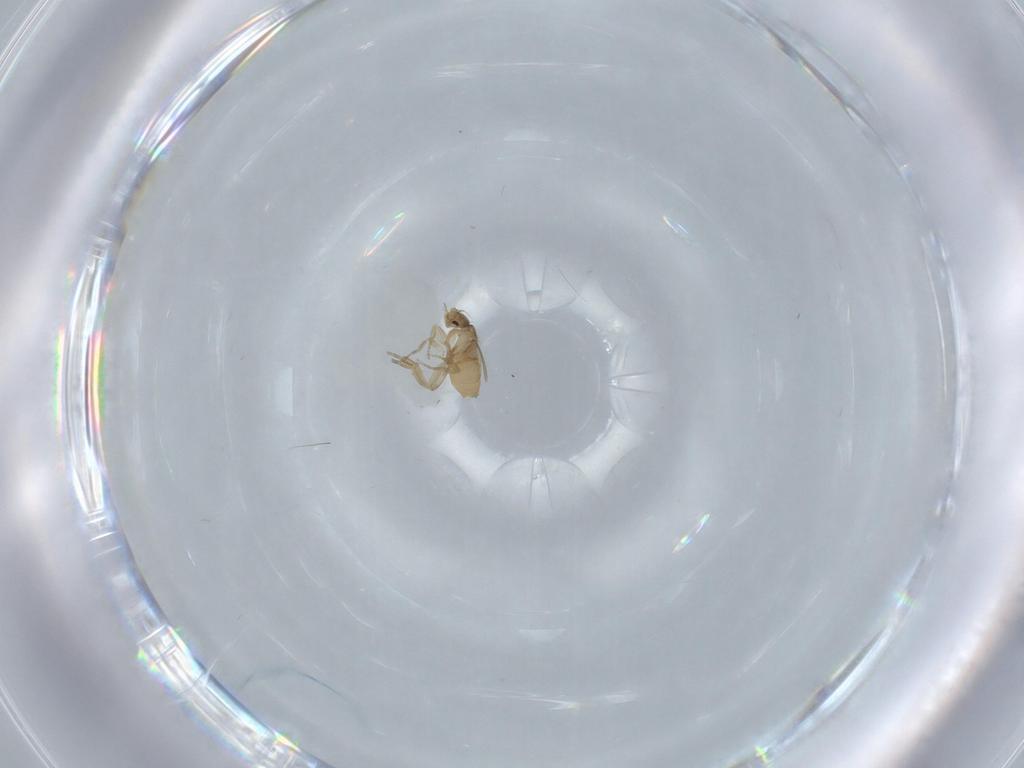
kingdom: Animalia
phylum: Arthropoda
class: Insecta
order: Diptera
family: Phoridae
